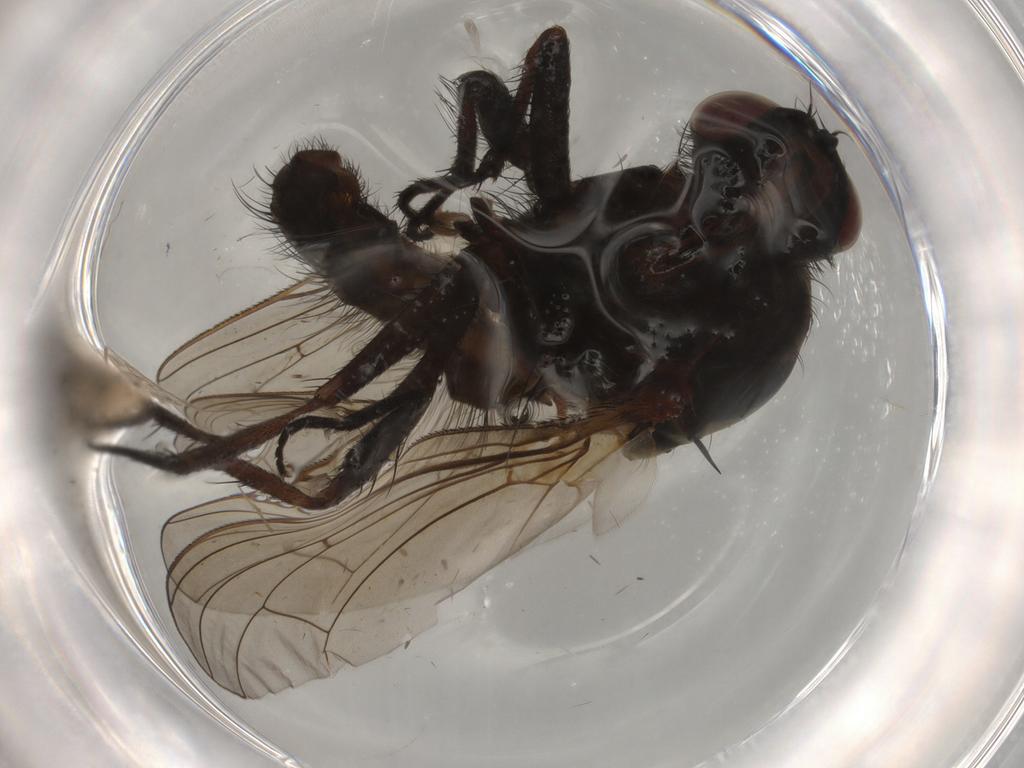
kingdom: Animalia
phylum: Arthropoda
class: Insecta
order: Diptera
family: Anthomyiidae
